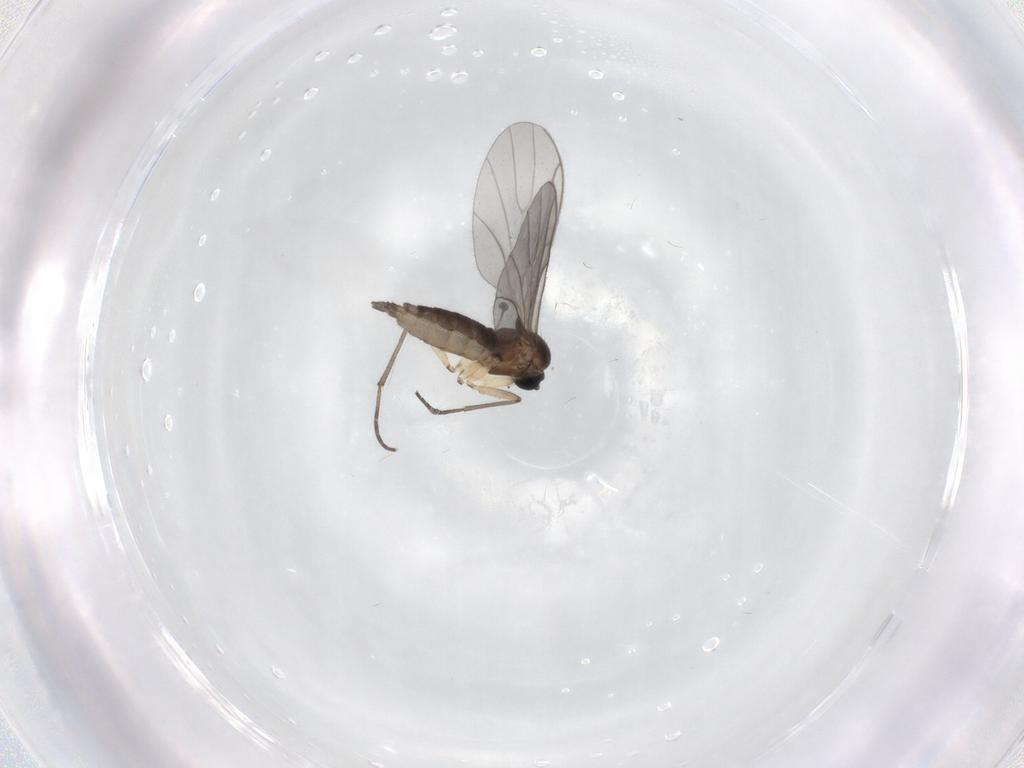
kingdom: Animalia
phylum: Arthropoda
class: Insecta
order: Diptera
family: Sciaridae
